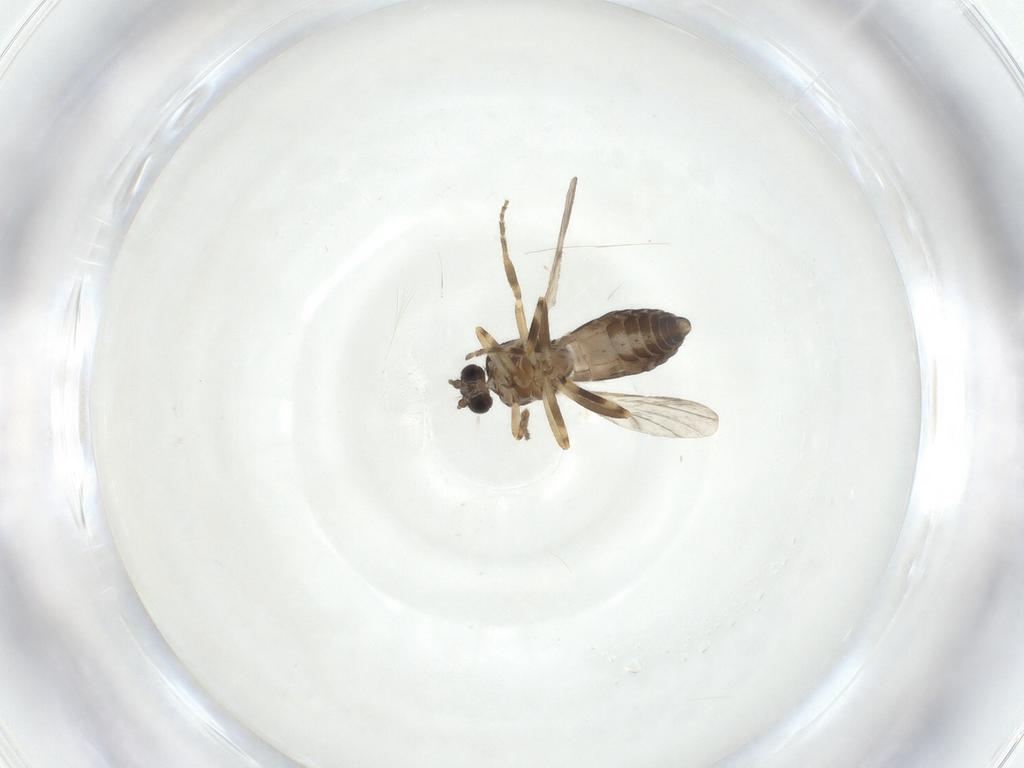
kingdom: Animalia
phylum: Arthropoda
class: Insecta
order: Diptera
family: Ceratopogonidae
